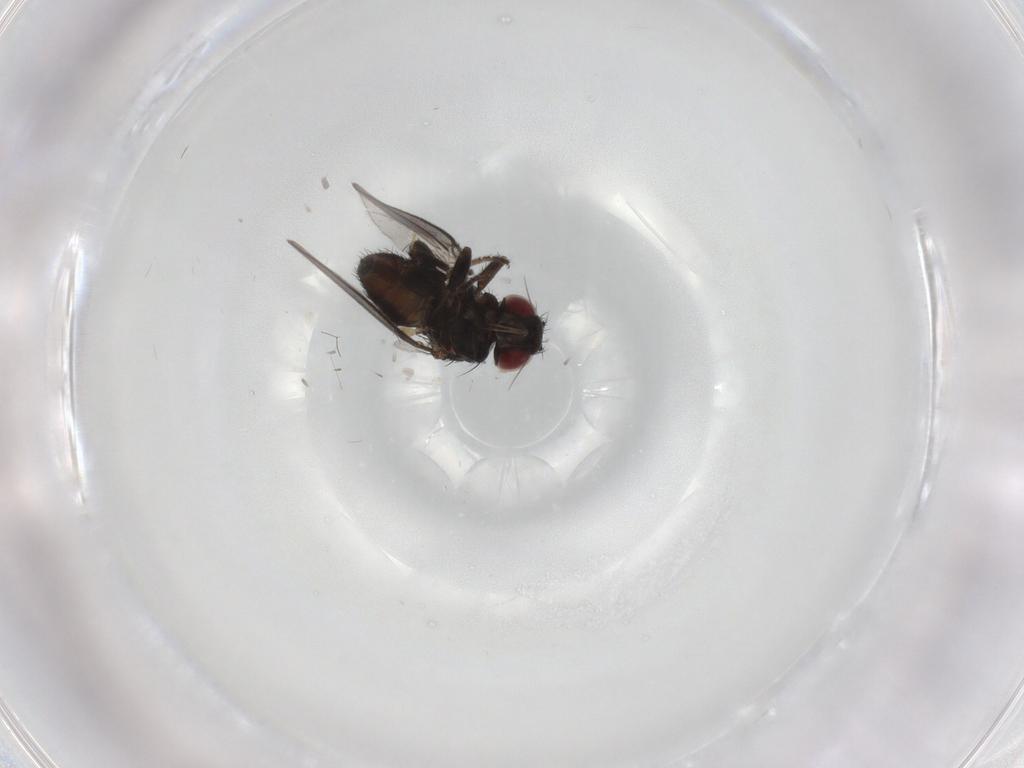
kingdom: Animalia
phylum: Arthropoda
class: Insecta
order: Diptera
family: Milichiidae
